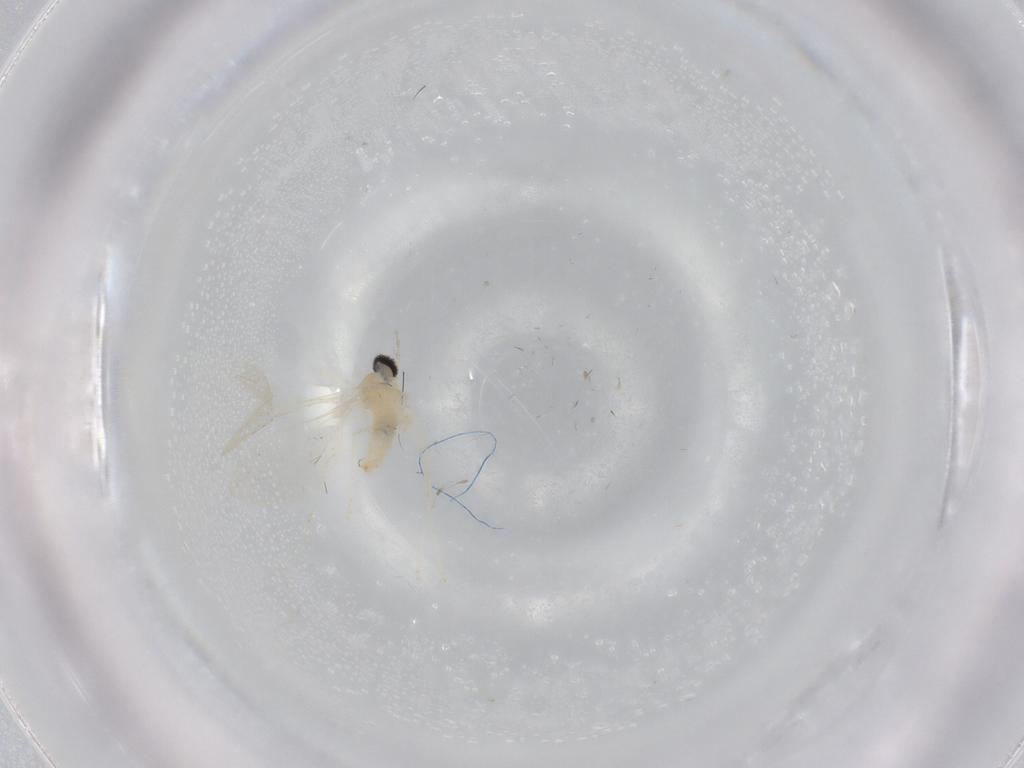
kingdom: Animalia
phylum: Arthropoda
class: Insecta
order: Diptera
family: Cecidomyiidae
